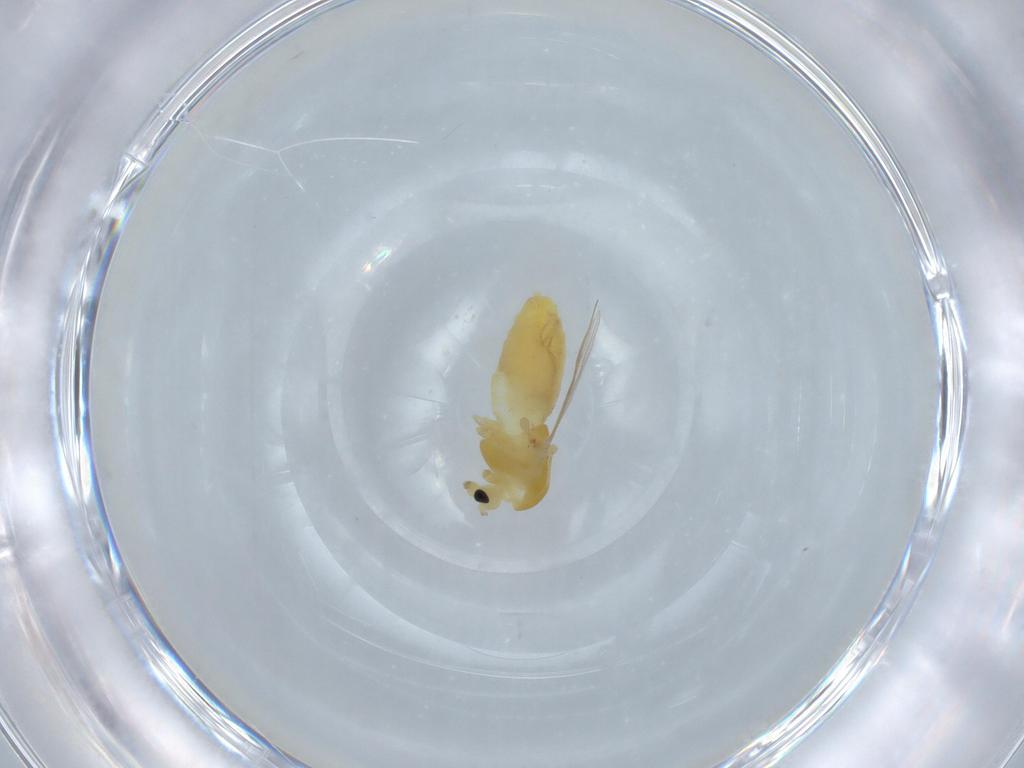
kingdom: Animalia
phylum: Arthropoda
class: Insecta
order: Diptera
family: Chironomidae
